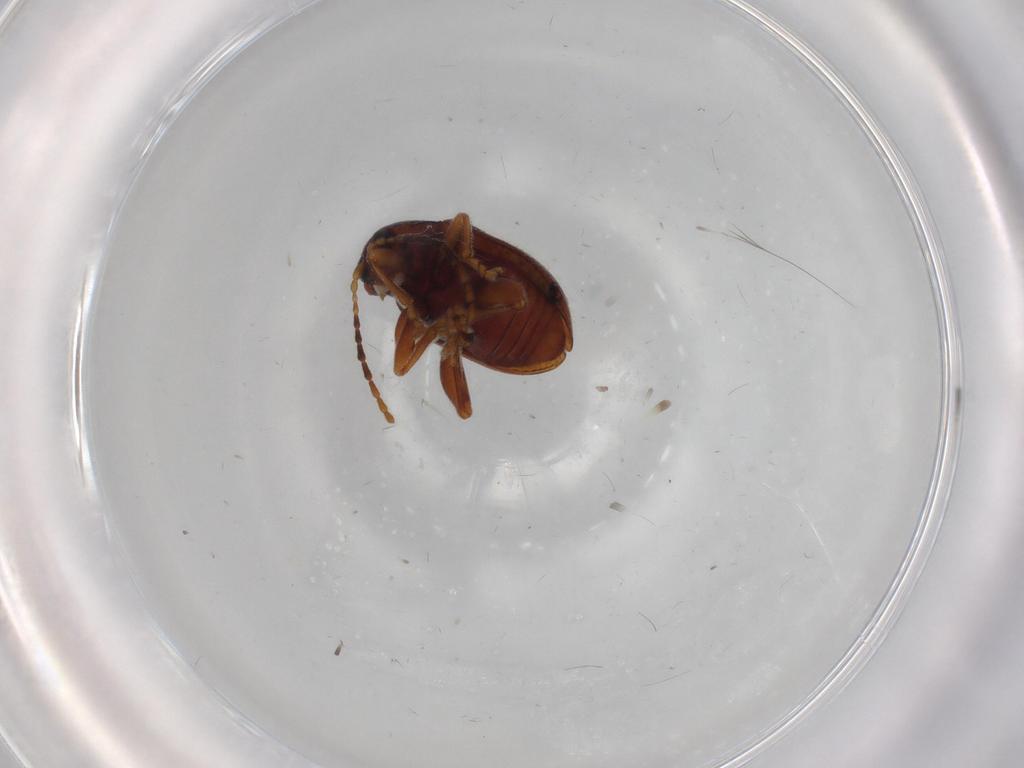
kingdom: Animalia
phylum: Arthropoda
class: Insecta
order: Coleoptera
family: Chrysomelidae
